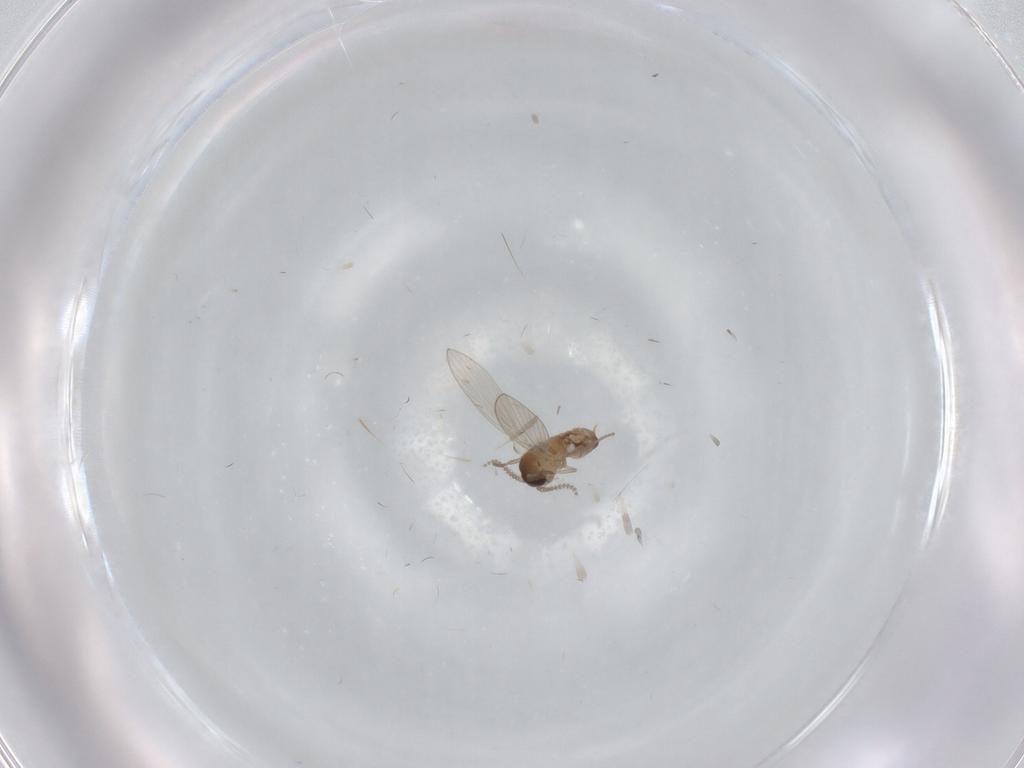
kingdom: Animalia
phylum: Arthropoda
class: Insecta
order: Diptera
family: Psychodidae
